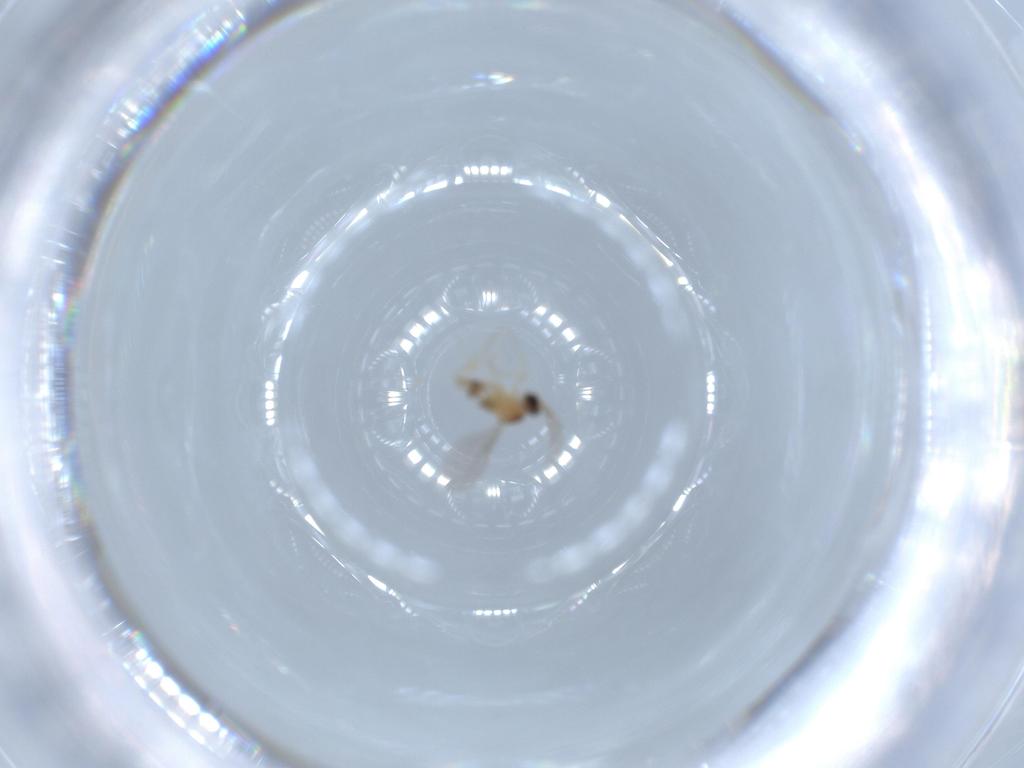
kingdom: Animalia
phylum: Arthropoda
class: Insecta
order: Diptera
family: Cecidomyiidae
